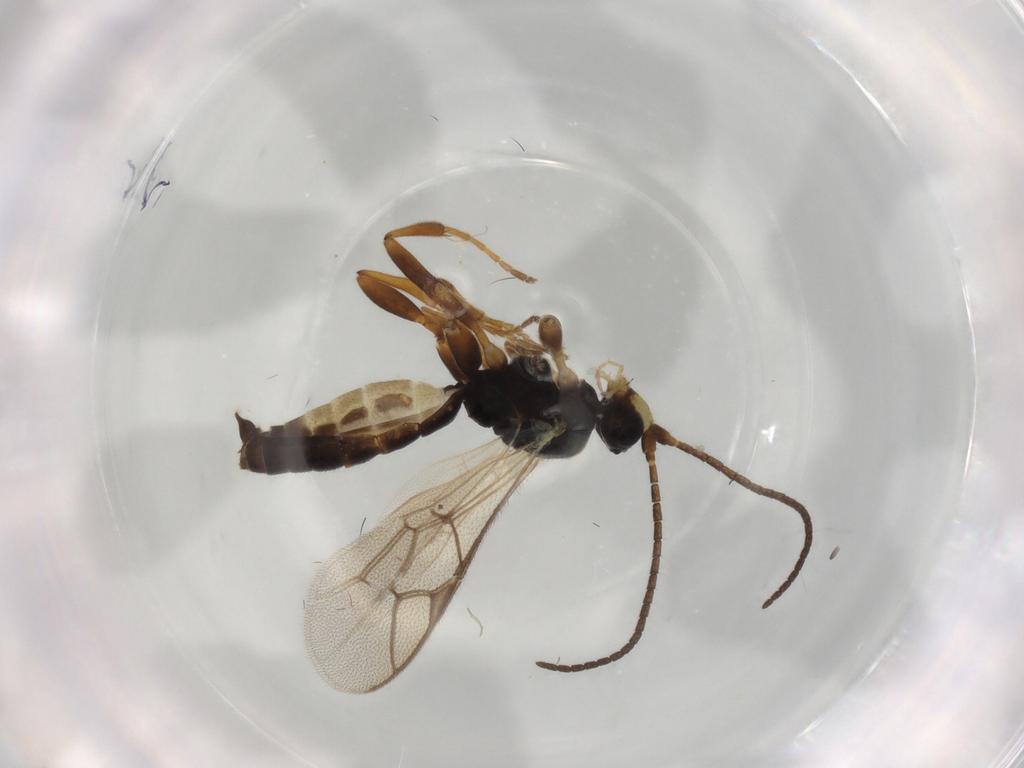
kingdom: Animalia
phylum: Arthropoda
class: Insecta
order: Hymenoptera
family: Ichneumonidae
